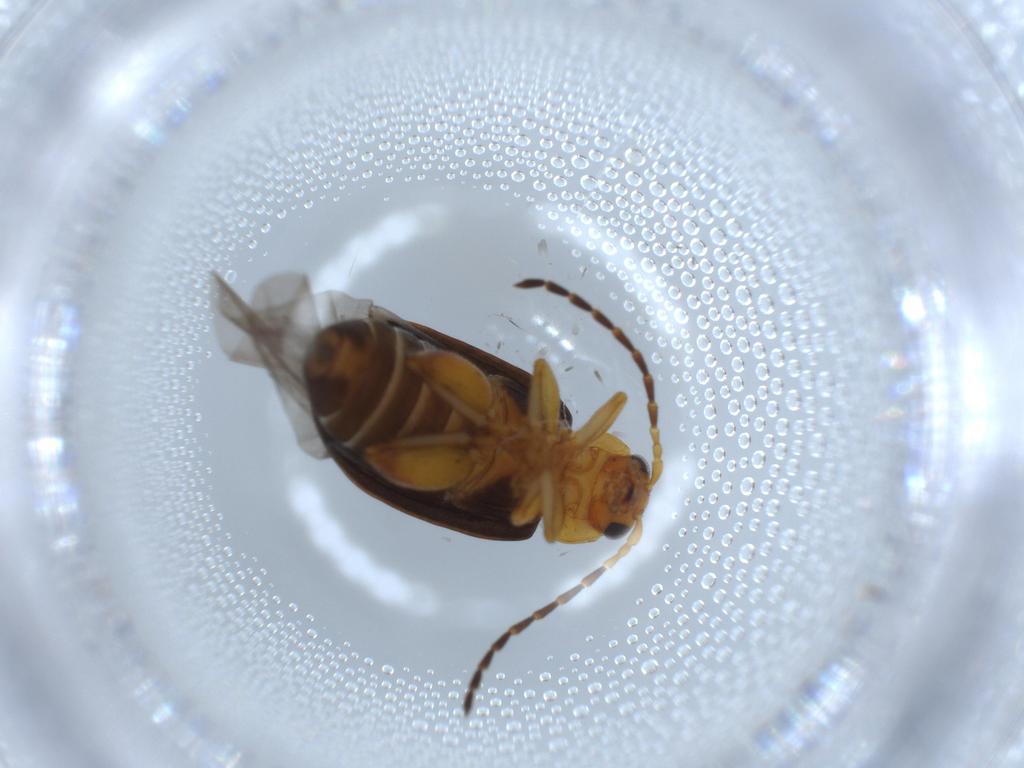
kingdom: Animalia
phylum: Arthropoda
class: Insecta
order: Coleoptera
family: Chrysomelidae
